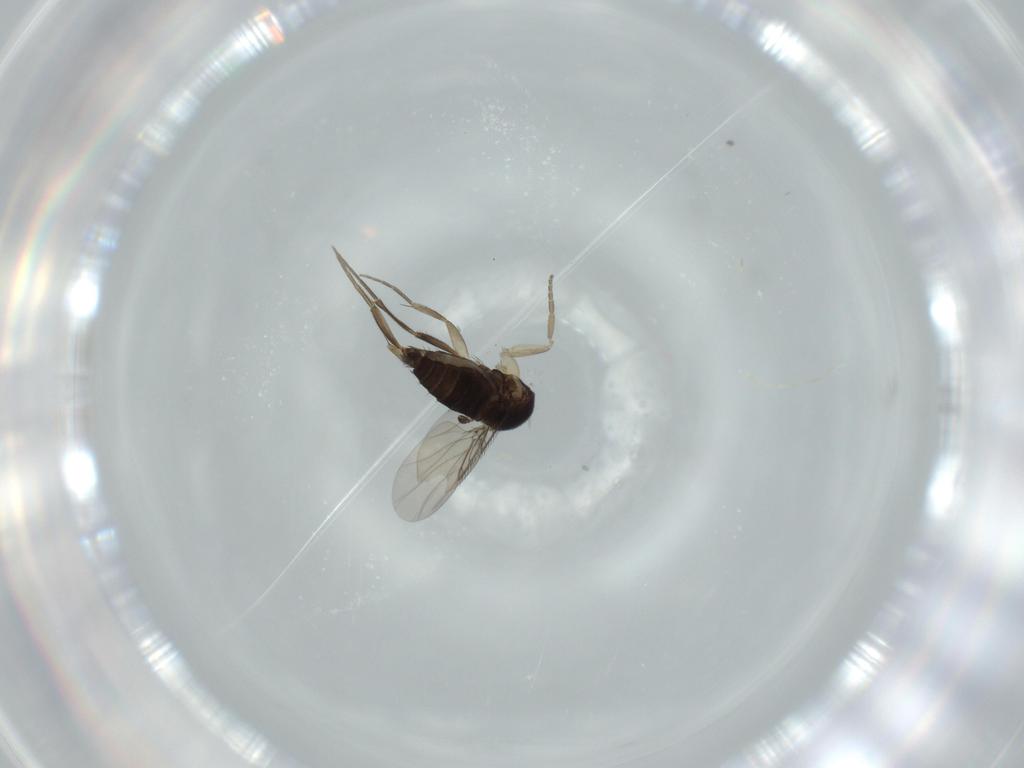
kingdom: Animalia
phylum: Arthropoda
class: Insecta
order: Diptera
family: Phoridae
